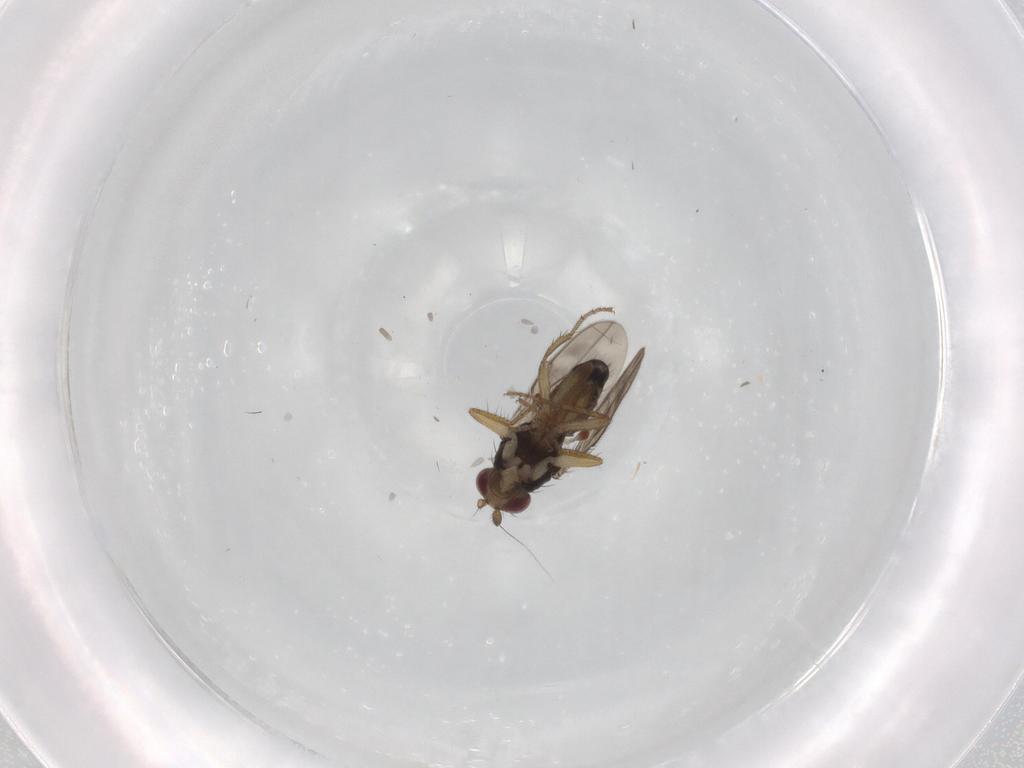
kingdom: Animalia
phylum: Arthropoda
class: Insecta
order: Diptera
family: Sphaeroceridae
